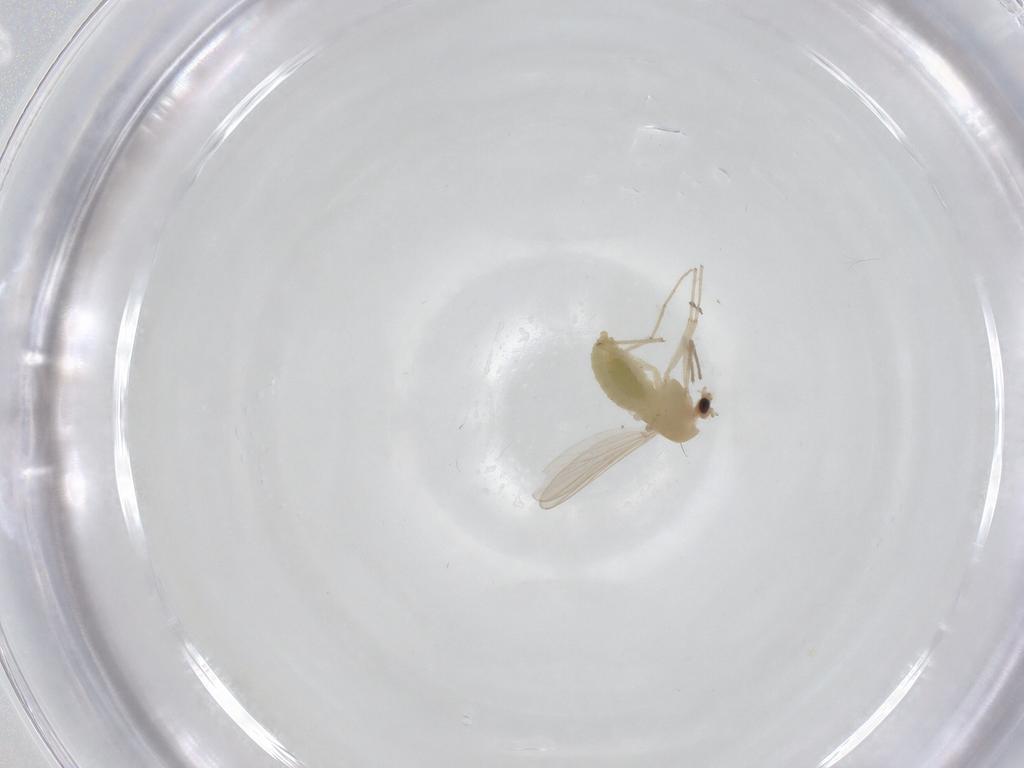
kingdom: Animalia
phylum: Arthropoda
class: Insecta
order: Diptera
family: Chironomidae
